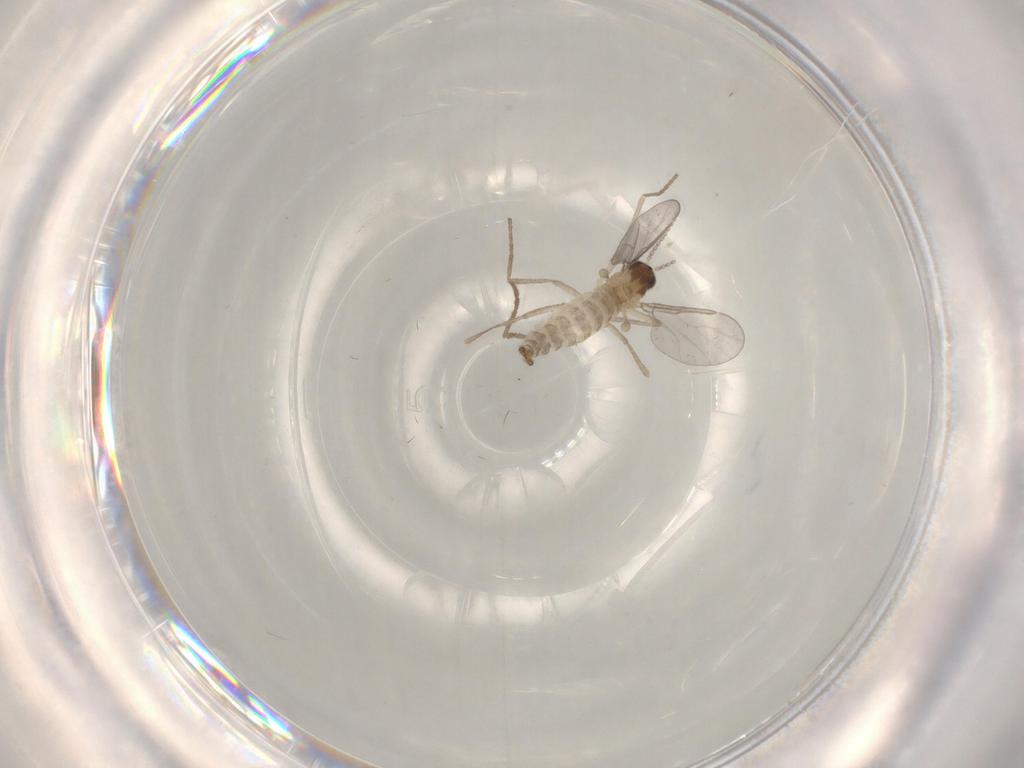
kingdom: Animalia
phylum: Arthropoda
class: Insecta
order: Diptera
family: Cecidomyiidae
